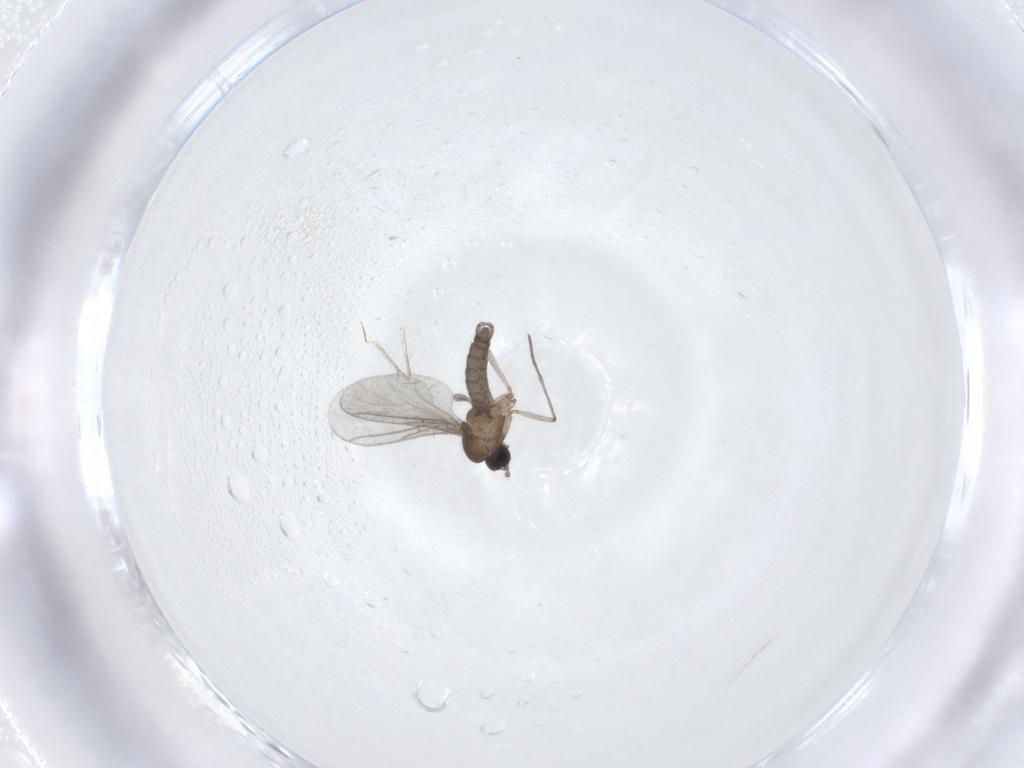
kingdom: Animalia
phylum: Arthropoda
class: Insecta
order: Diptera
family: Sciaridae
